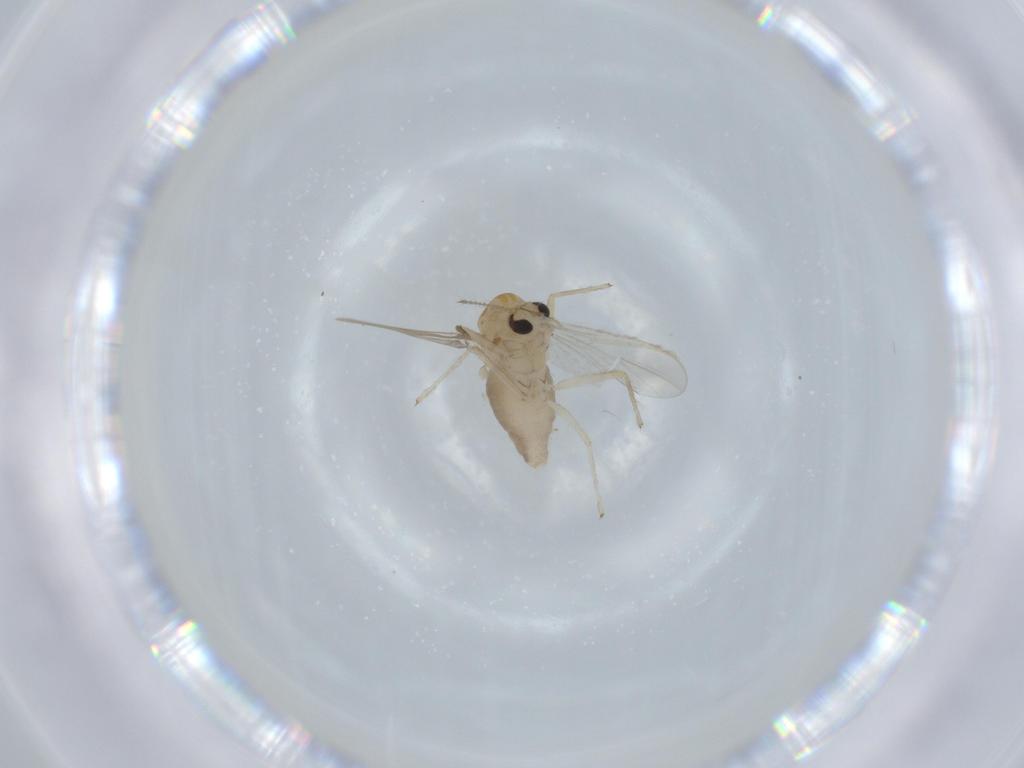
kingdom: Animalia
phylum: Arthropoda
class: Insecta
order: Diptera
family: Chironomidae
